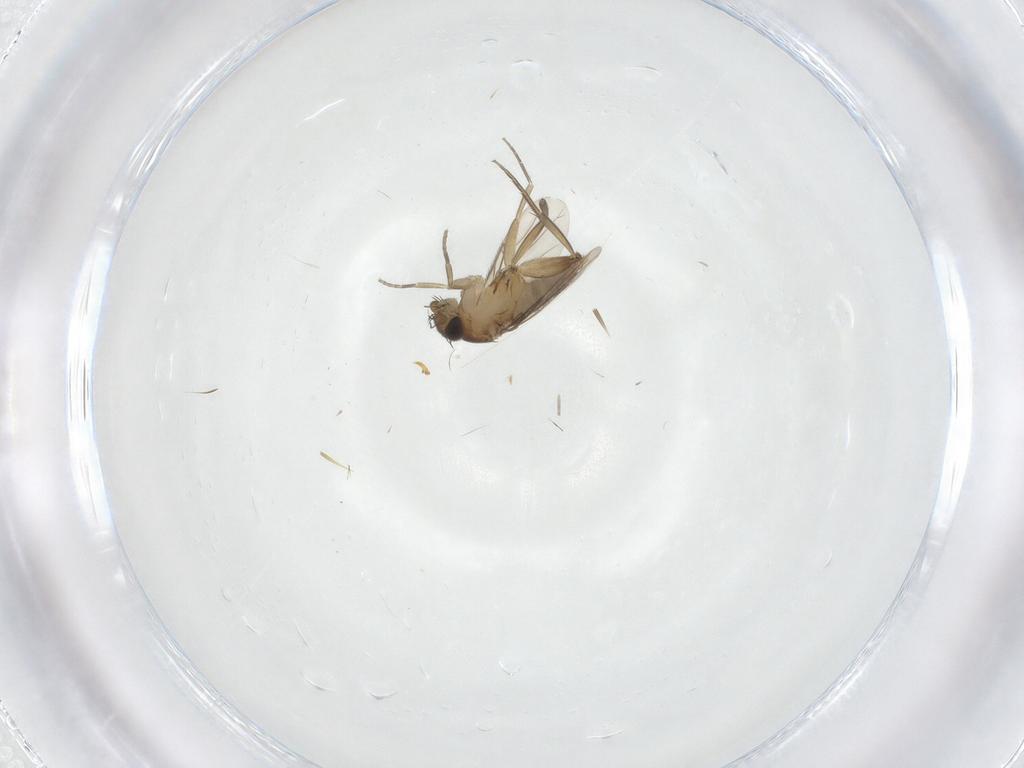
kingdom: Animalia
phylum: Arthropoda
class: Insecta
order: Diptera
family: Phoridae
